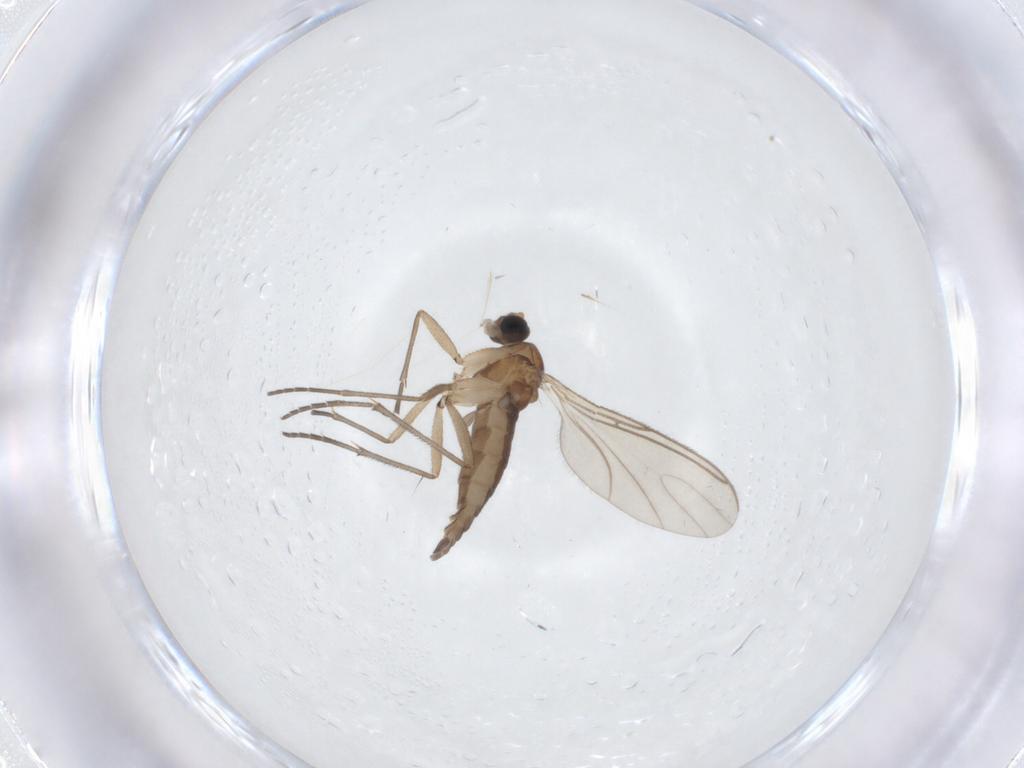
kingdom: Animalia
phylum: Arthropoda
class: Insecta
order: Diptera
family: Sciaridae
